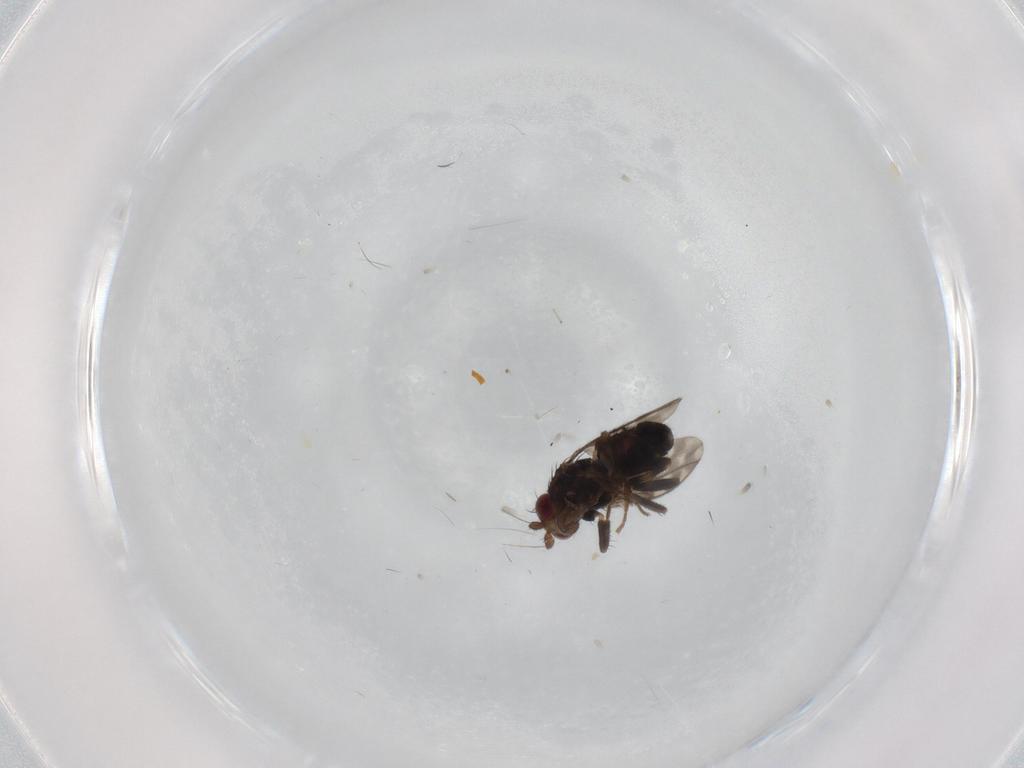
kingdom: Animalia
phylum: Arthropoda
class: Insecta
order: Diptera
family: Sphaeroceridae
